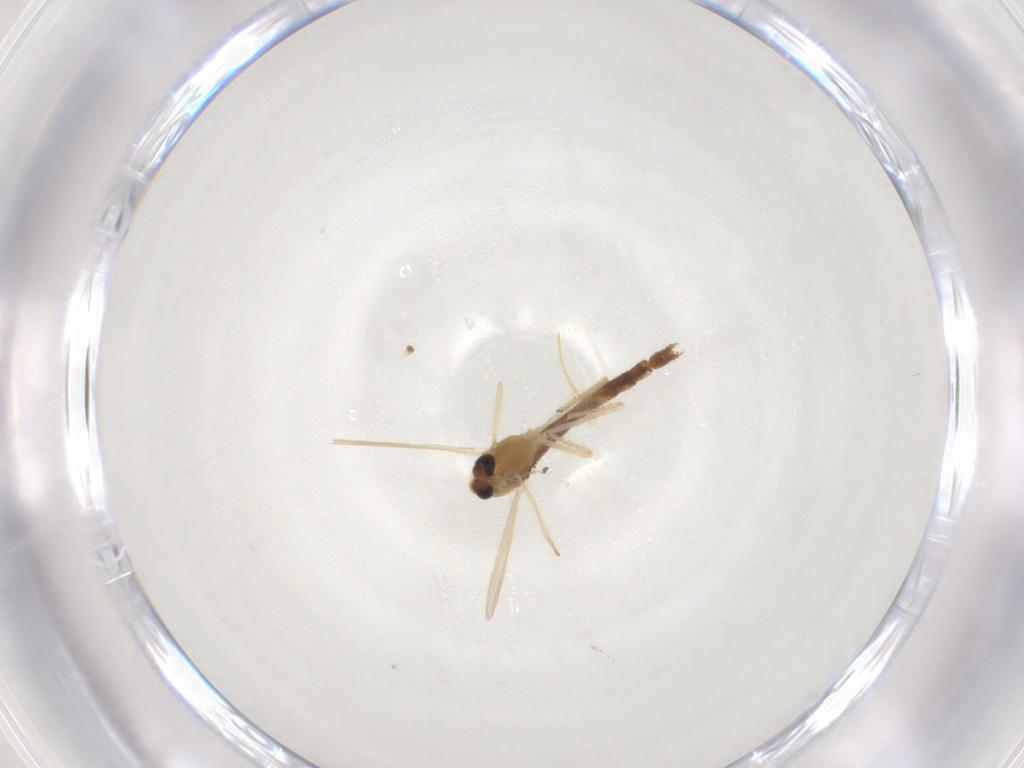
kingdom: Animalia
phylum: Arthropoda
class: Insecta
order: Diptera
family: Chironomidae
